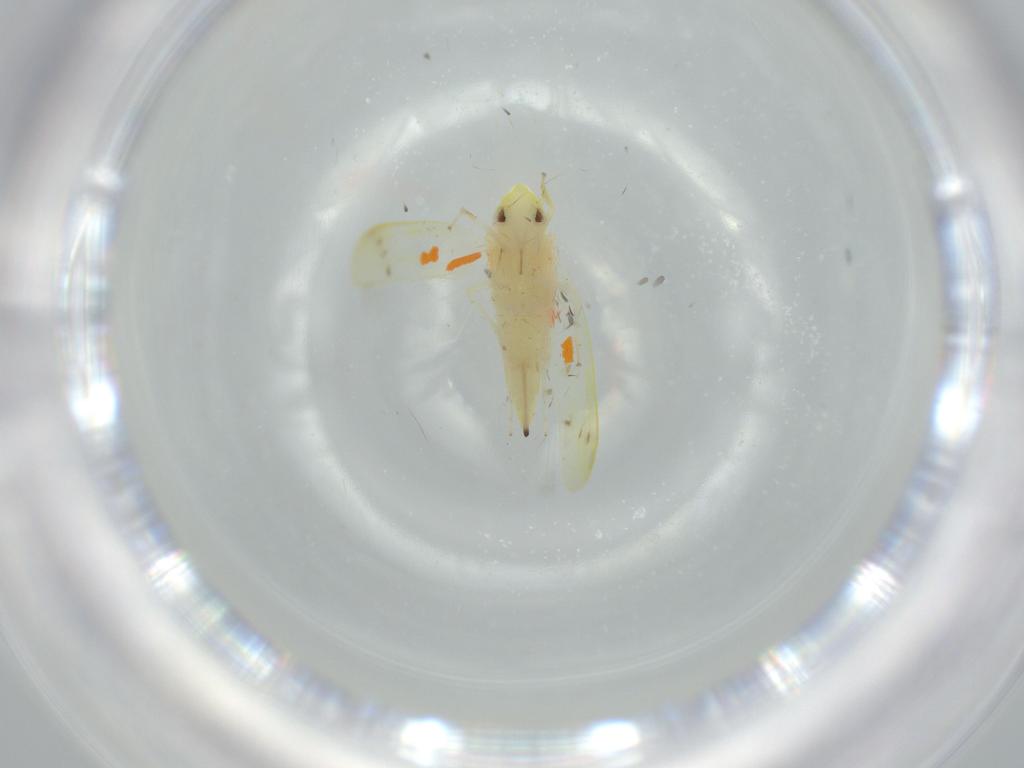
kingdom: Animalia
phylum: Arthropoda
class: Insecta
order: Hemiptera
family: Cicadellidae
